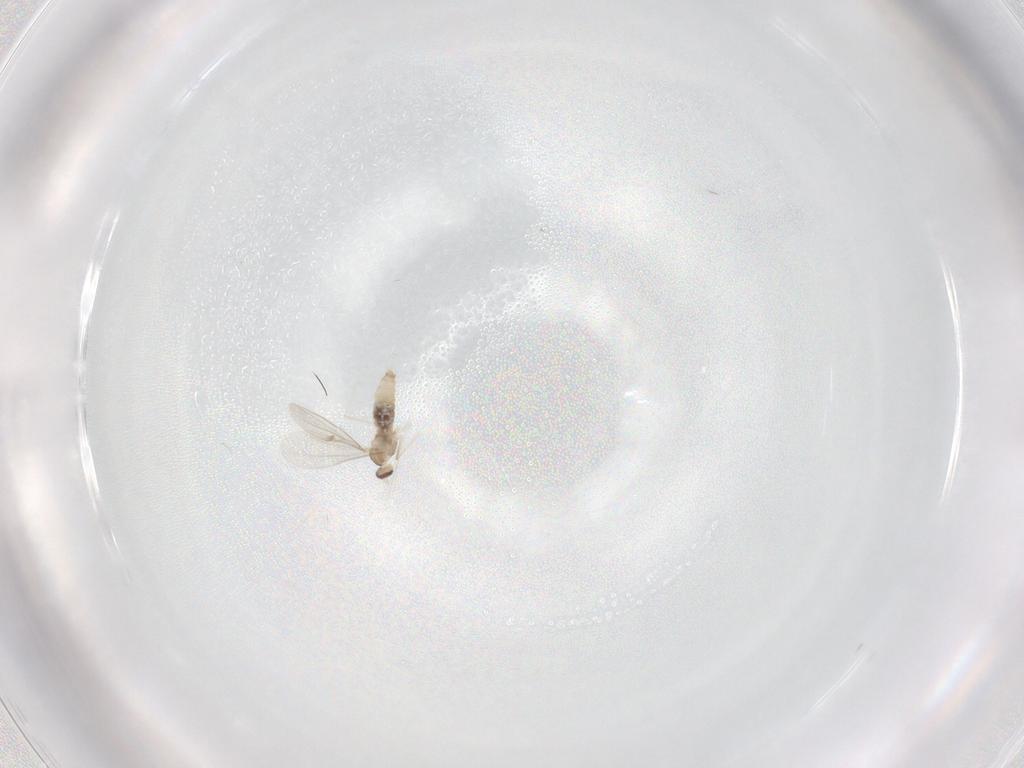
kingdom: Animalia
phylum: Arthropoda
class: Insecta
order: Diptera
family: Cecidomyiidae
